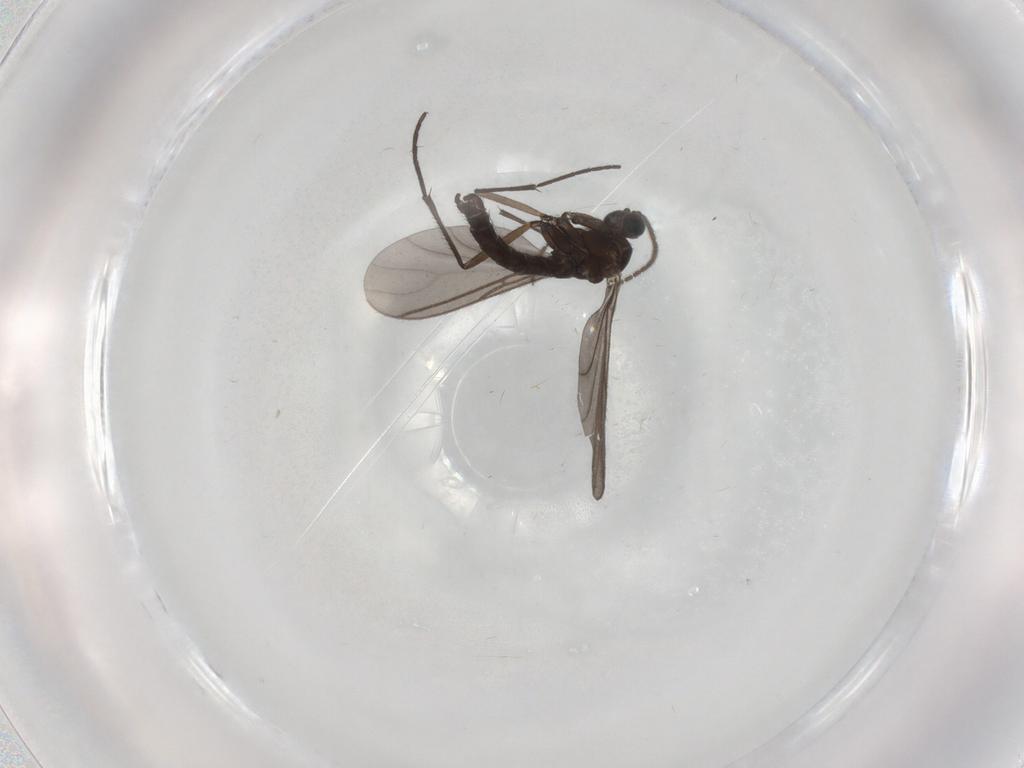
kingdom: Animalia
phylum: Arthropoda
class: Insecta
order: Diptera
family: Sciaridae
